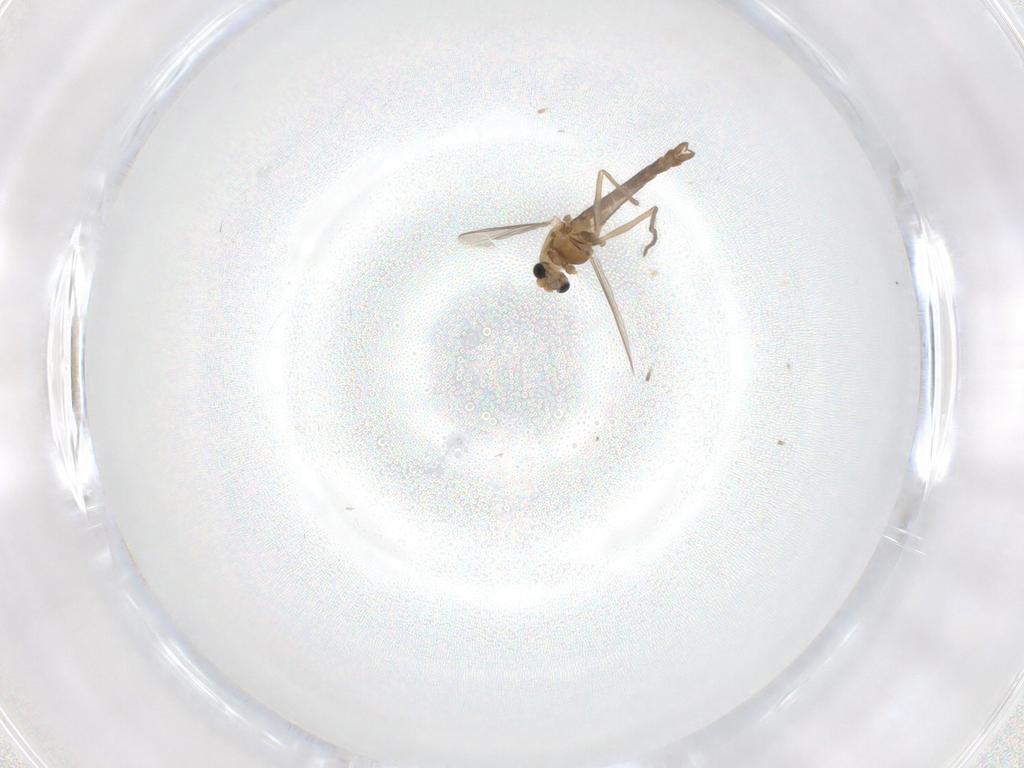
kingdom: Animalia
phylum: Arthropoda
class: Insecta
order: Diptera
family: Chironomidae
